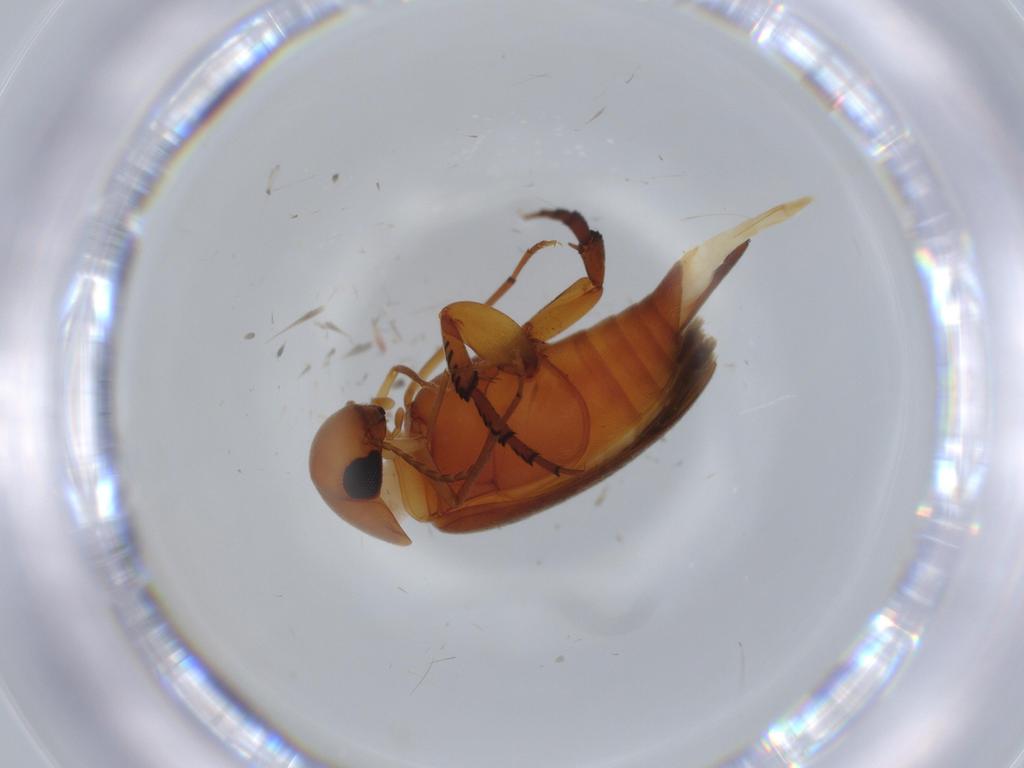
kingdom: Animalia
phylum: Arthropoda
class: Insecta
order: Coleoptera
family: Throscidae
